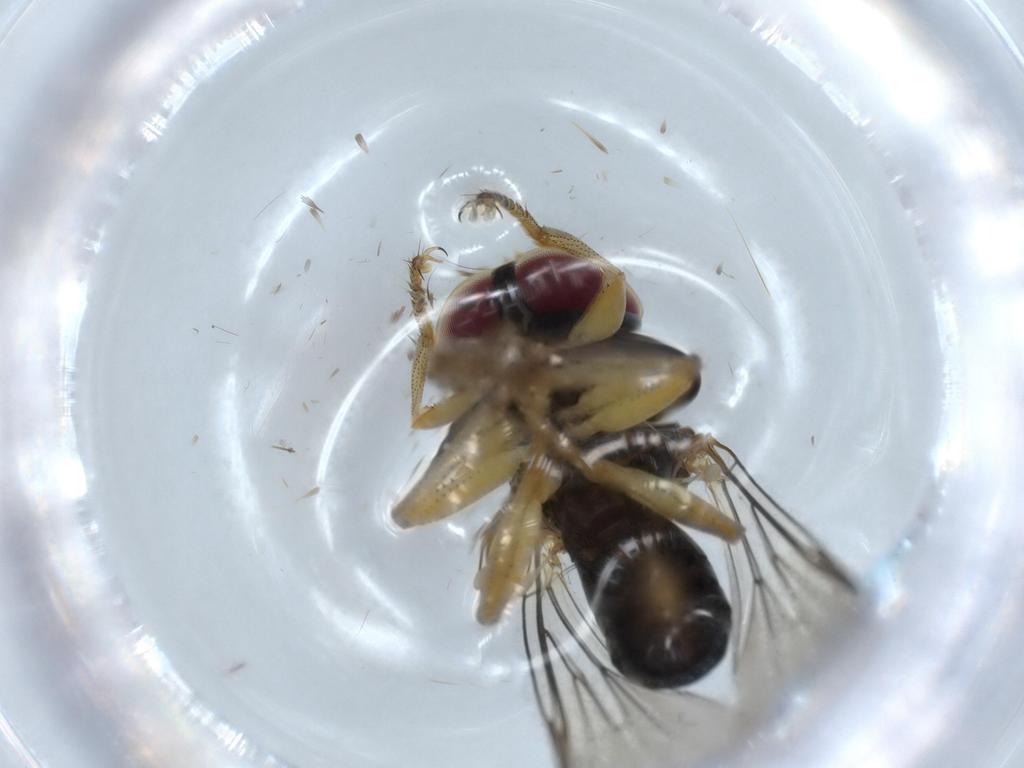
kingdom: Animalia
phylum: Arthropoda
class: Insecta
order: Diptera
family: Pipunculidae
